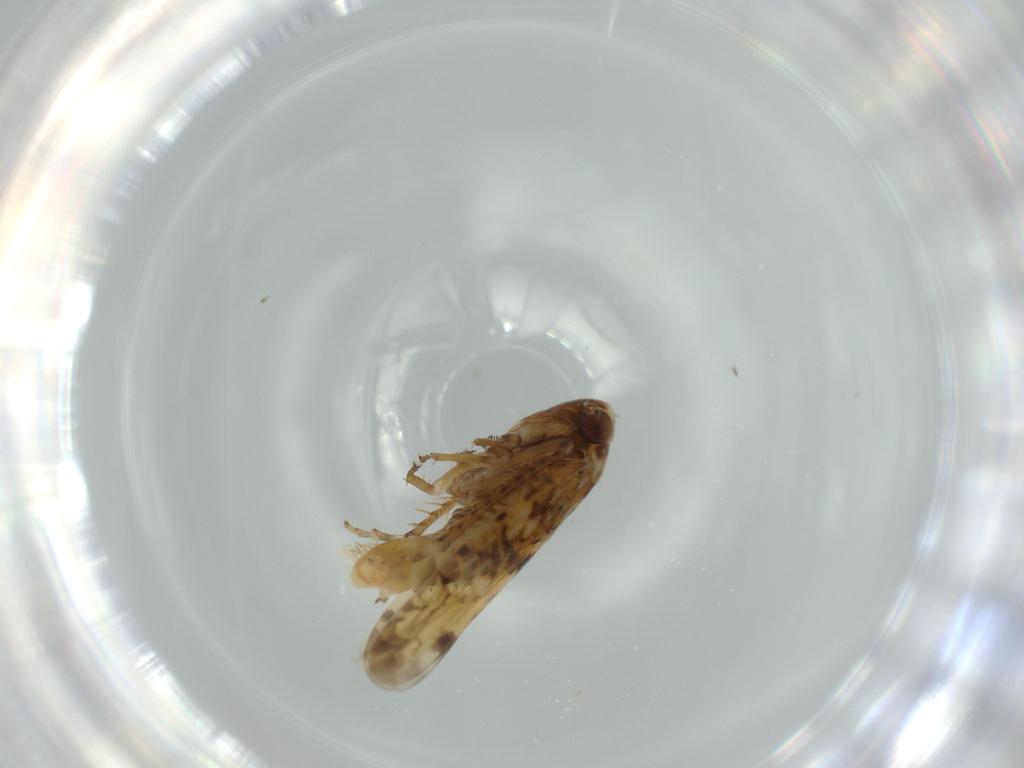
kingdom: Animalia
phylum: Arthropoda
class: Insecta
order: Hemiptera
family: Cicadellidae
